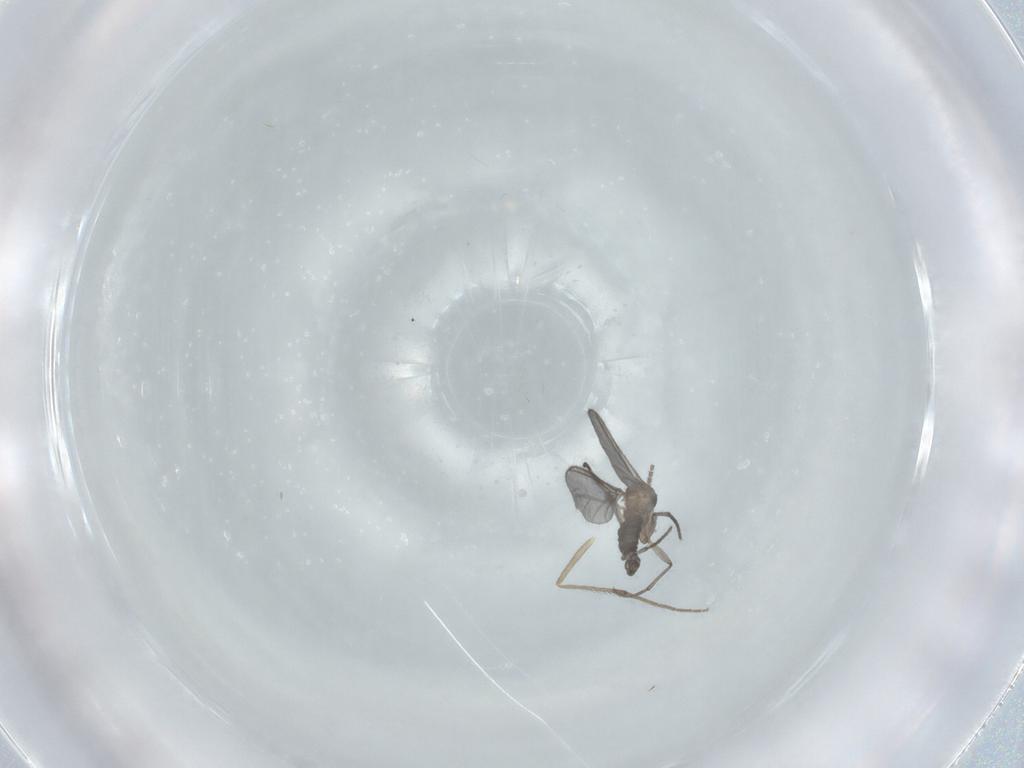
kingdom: Animalia
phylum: Arthropoda
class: Insecta
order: Diptera
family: Sciaridae
